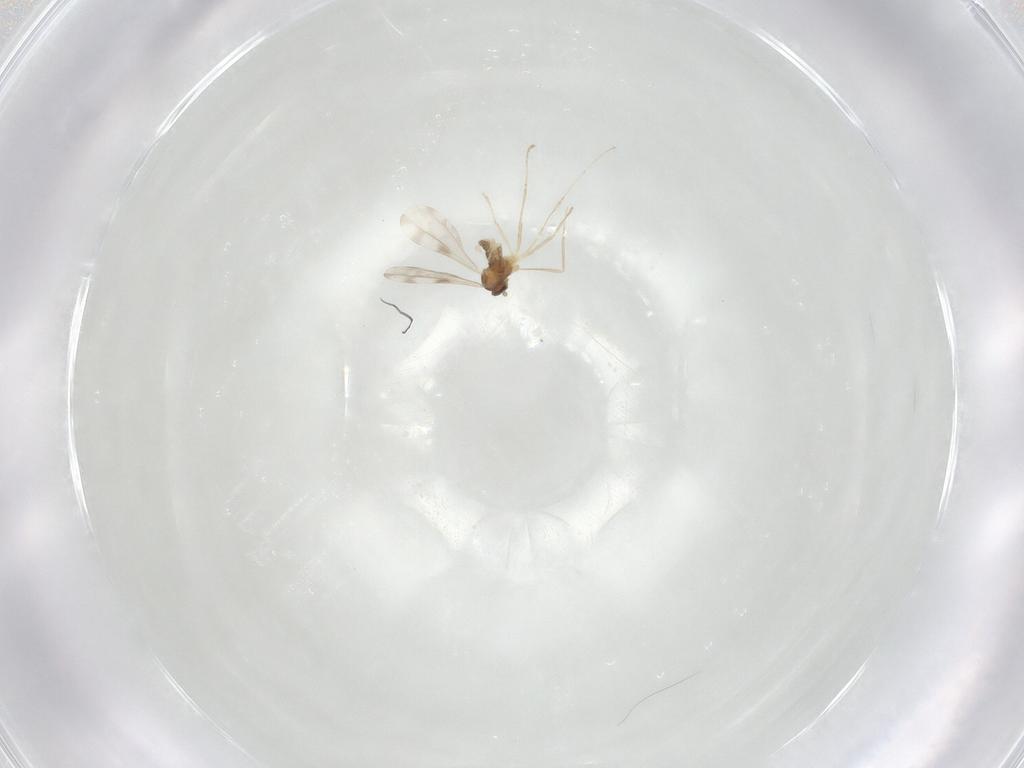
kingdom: Animalia
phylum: Arthropoda
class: Insecta
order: Diptera
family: Cecidomyiidae
